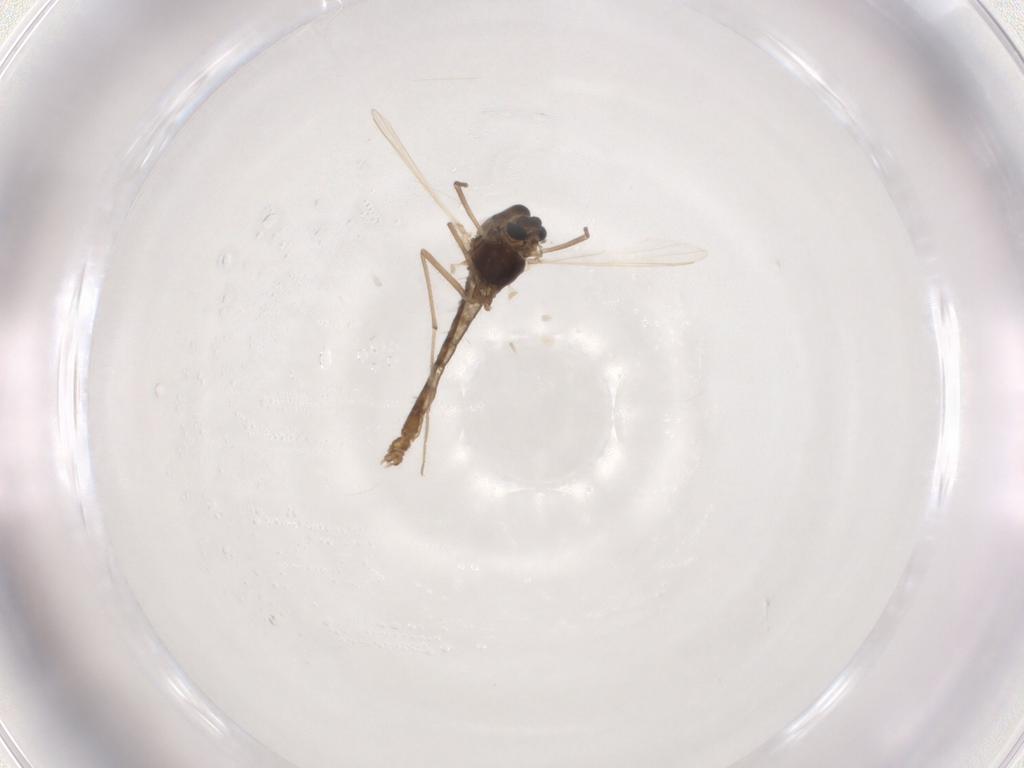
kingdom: Animalia
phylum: Arthropoda
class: Insecta
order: Diptera
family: Chironomidae
